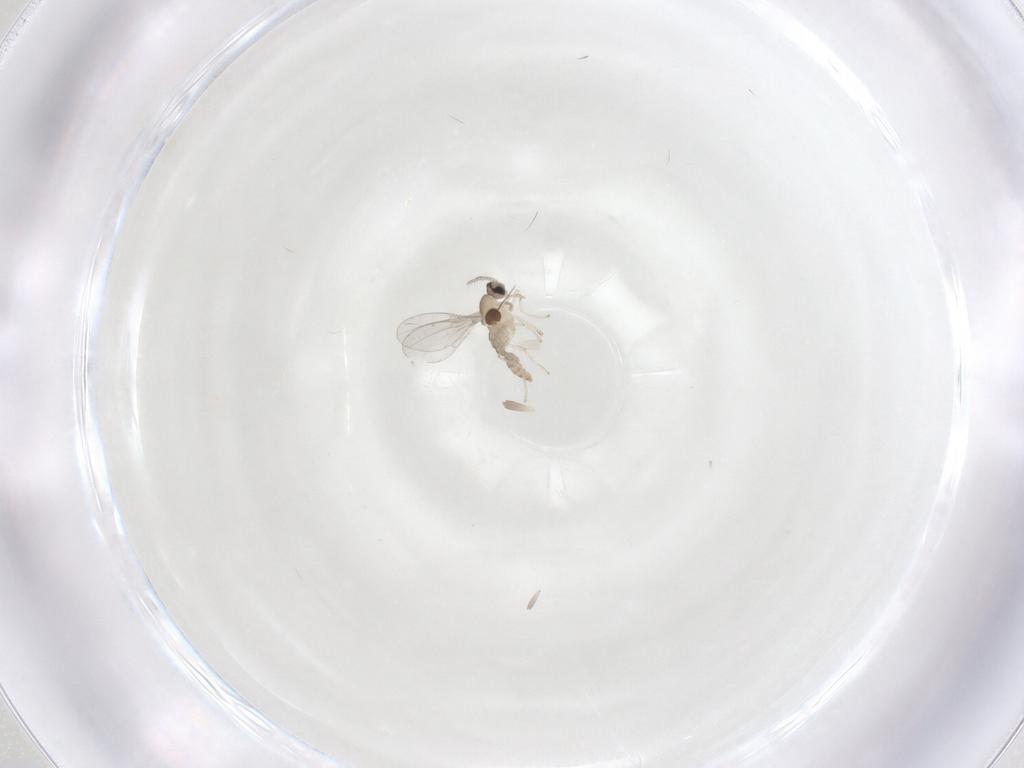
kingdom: Animalia
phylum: Arthropoda
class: Insecta
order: Diptera
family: Cecidomyiidae
